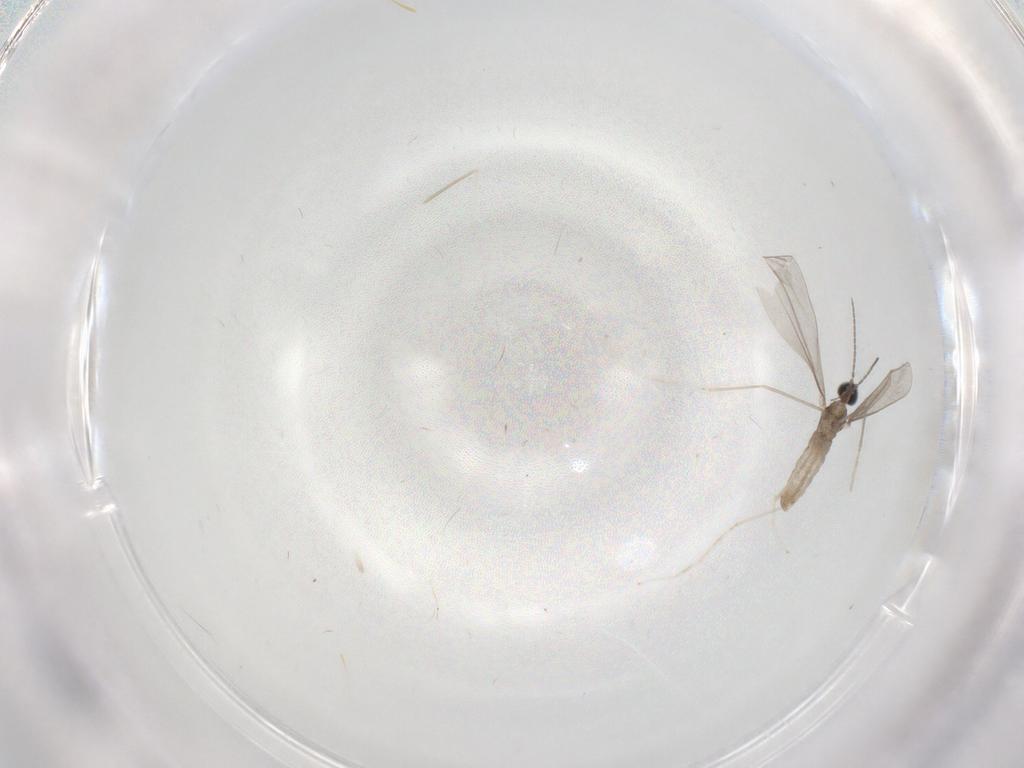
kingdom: Animalia
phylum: Arthropoda
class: Insecta
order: Diptera
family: Cecidomyiidae
